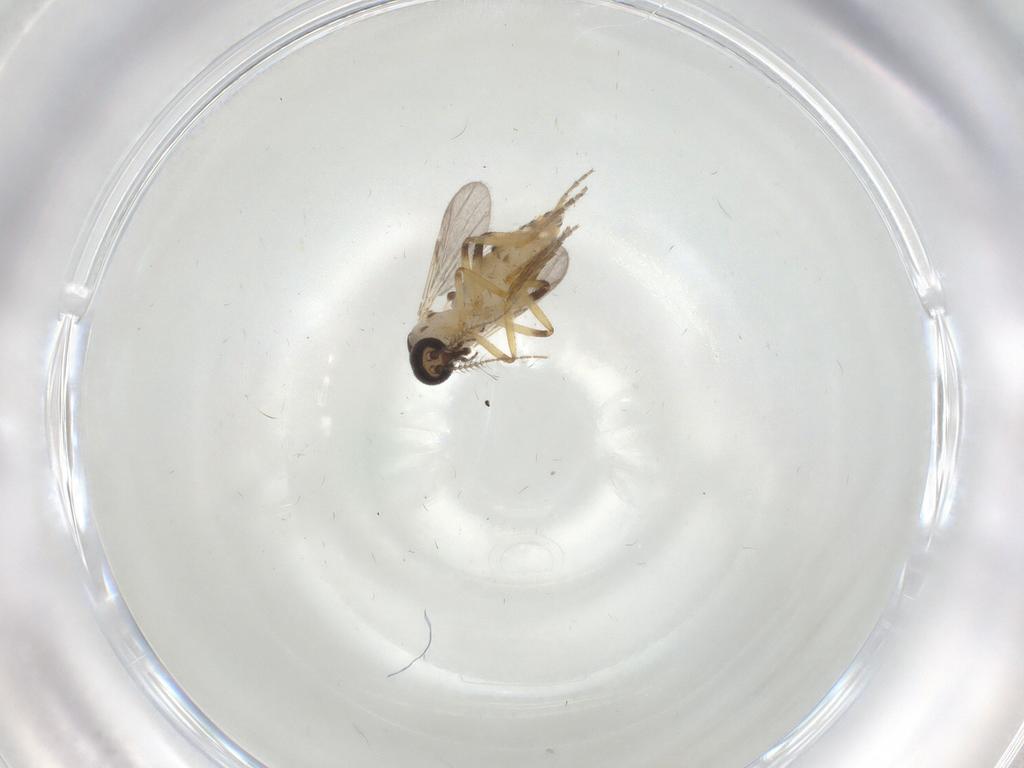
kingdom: Animalia
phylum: Arthropoda
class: Insecta
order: Diptera
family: Ceratopogonidae
